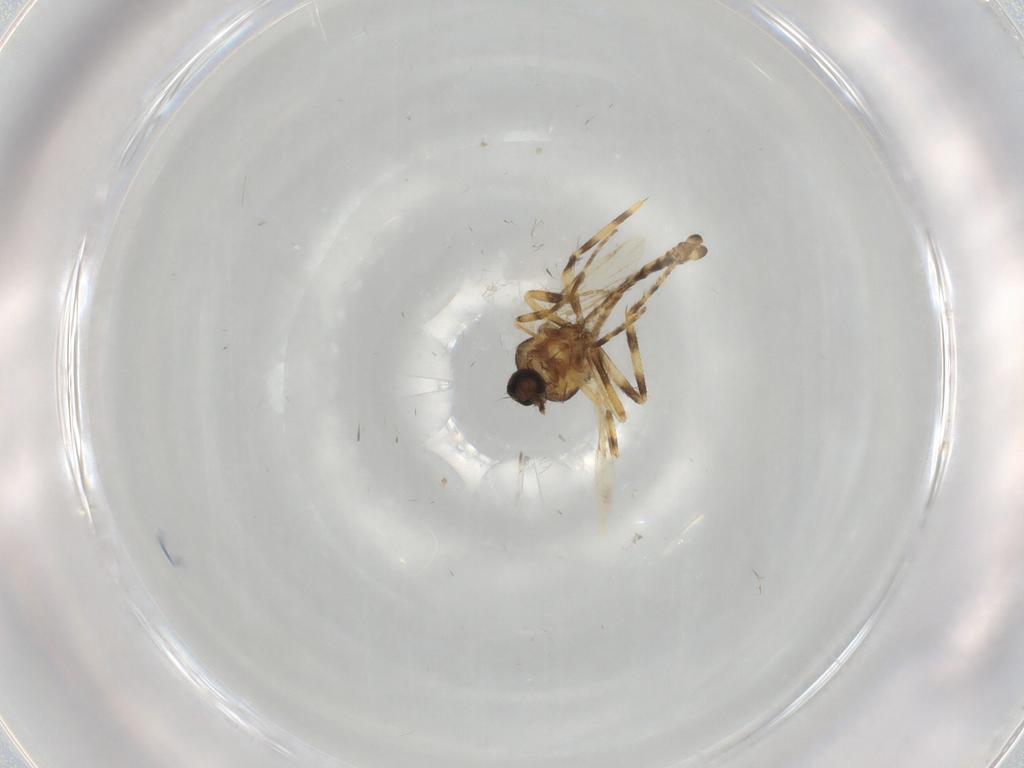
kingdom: Animalia
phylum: Arthropoda
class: Insecta
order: Diptera
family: Ceratopogonidae
